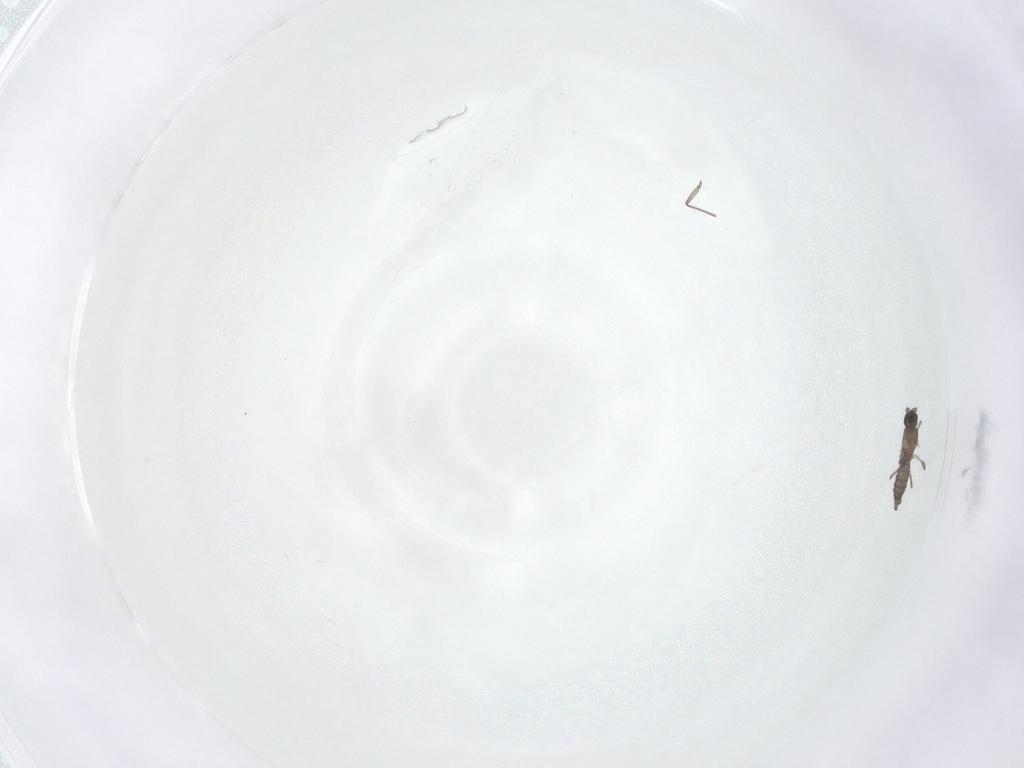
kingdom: Animalia
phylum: Arthropoda
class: Insecta
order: Diptera
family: Sciaridae
